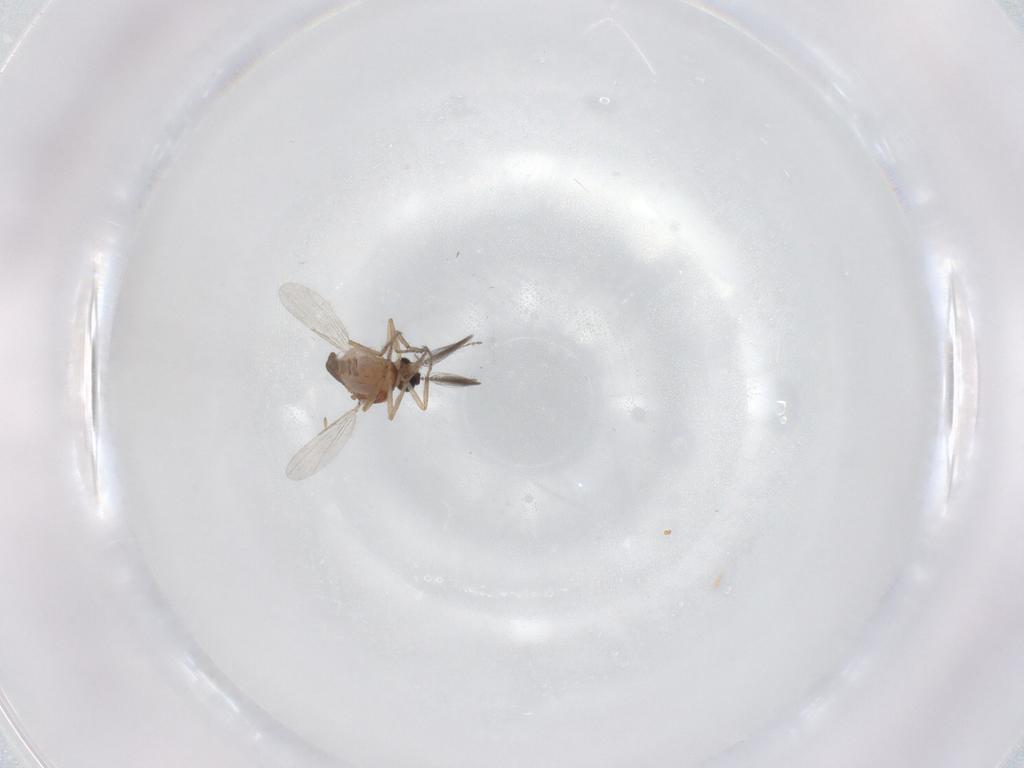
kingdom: Animalia
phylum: Arthropoda
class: Insecta
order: Diptera
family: Ceratopogonidae
